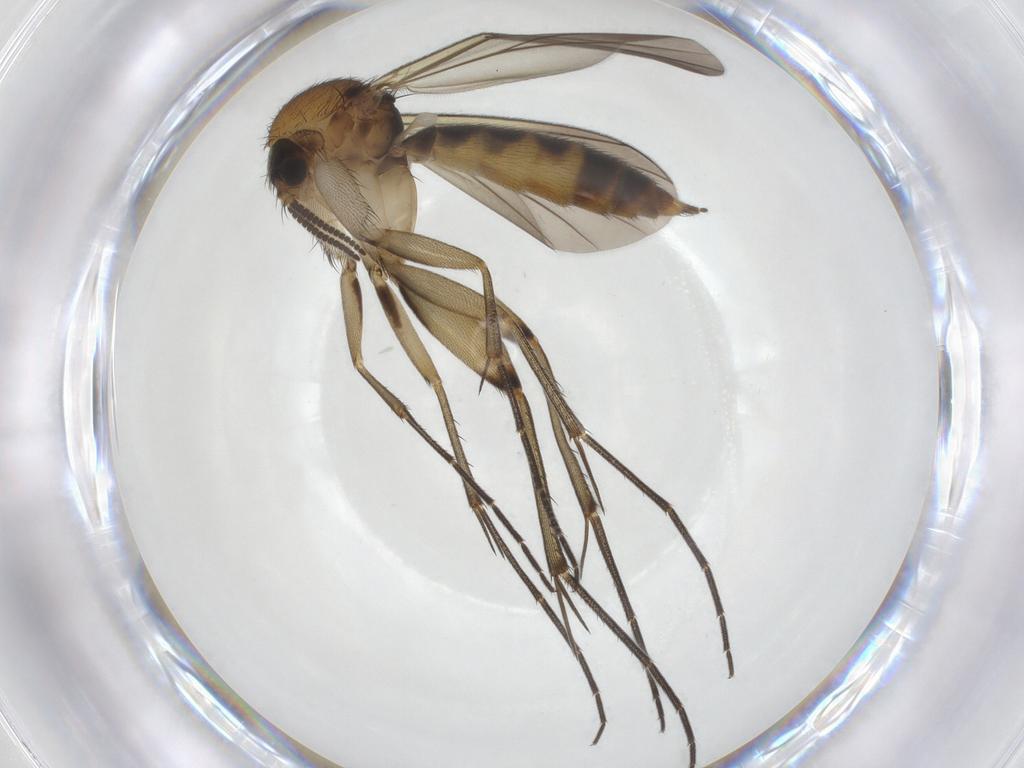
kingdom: Animalia
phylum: Arthropoda
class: Insecta
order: Diptera
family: Mycetophilidae
